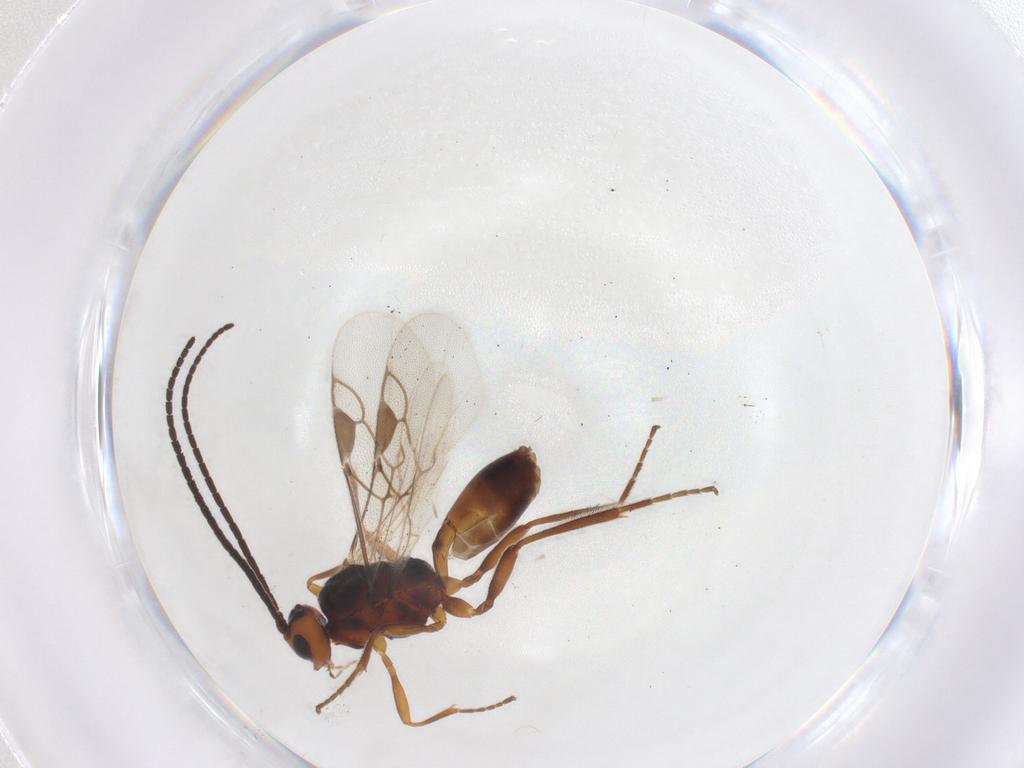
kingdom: Animalia
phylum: Arthropoda
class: Insecta
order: Hymenoptera
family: Braconidae
